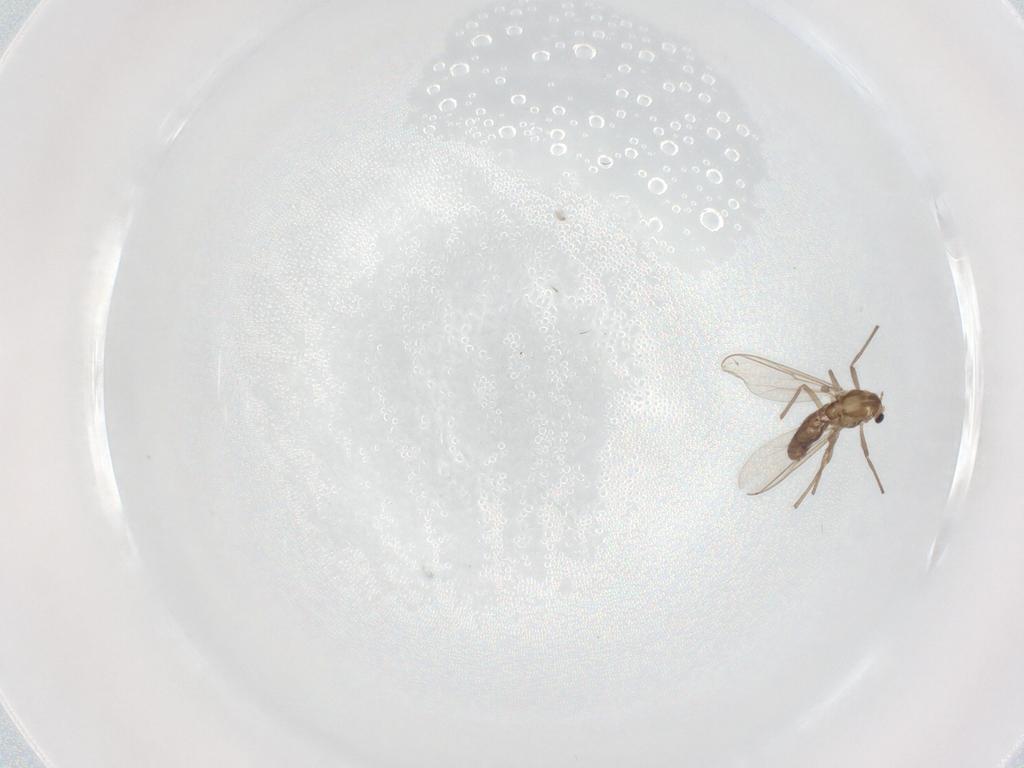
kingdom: Animalia
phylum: Arthropoda
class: Insecta
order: Diptera
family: Chironomidae
